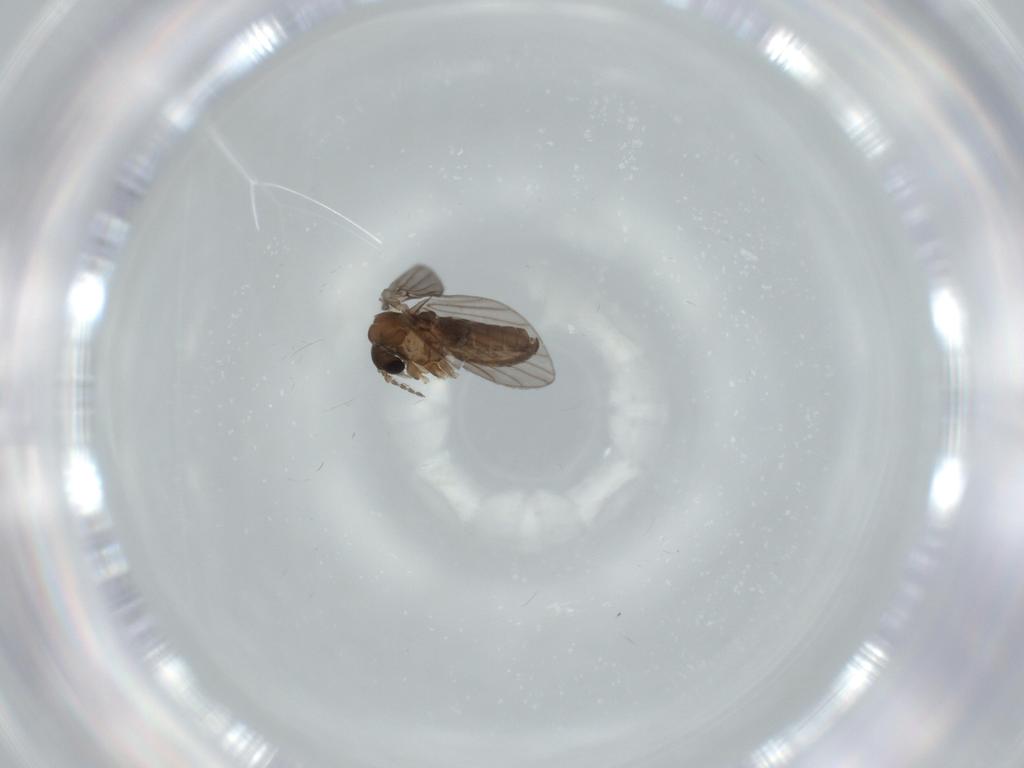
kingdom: Animalia
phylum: Arthropoda
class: Insecta
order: Diptera
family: Psychodidae
